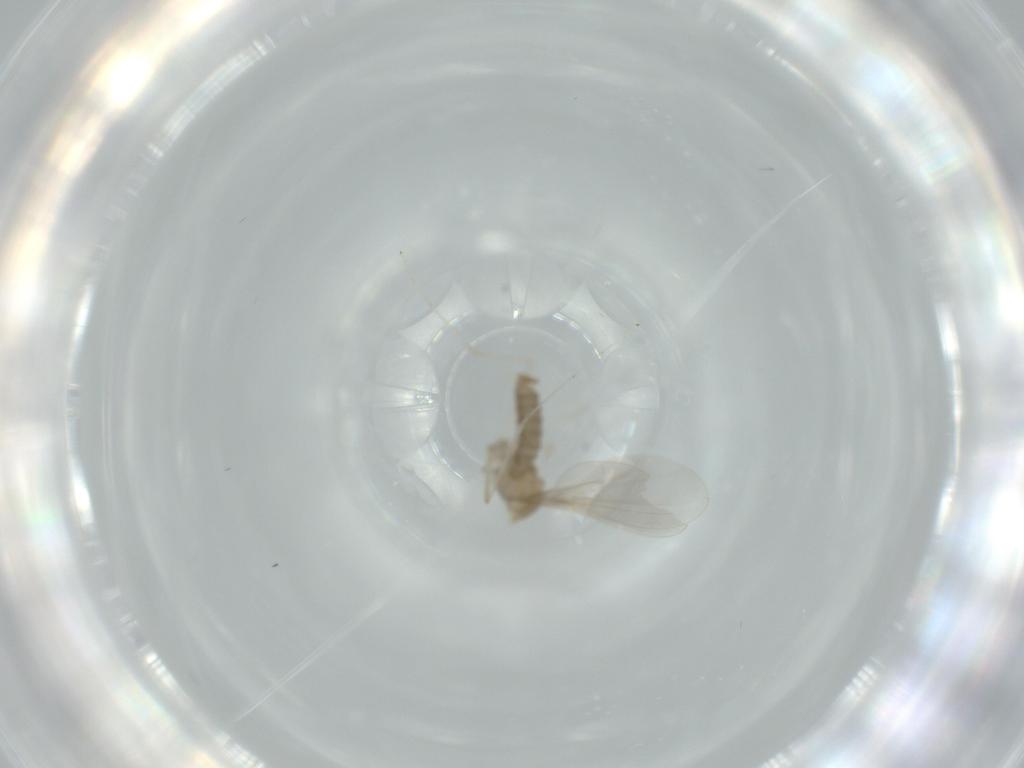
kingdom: Animalia
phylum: Arthropoda
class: Insecta
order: Diptera
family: Cecidomyiidae
